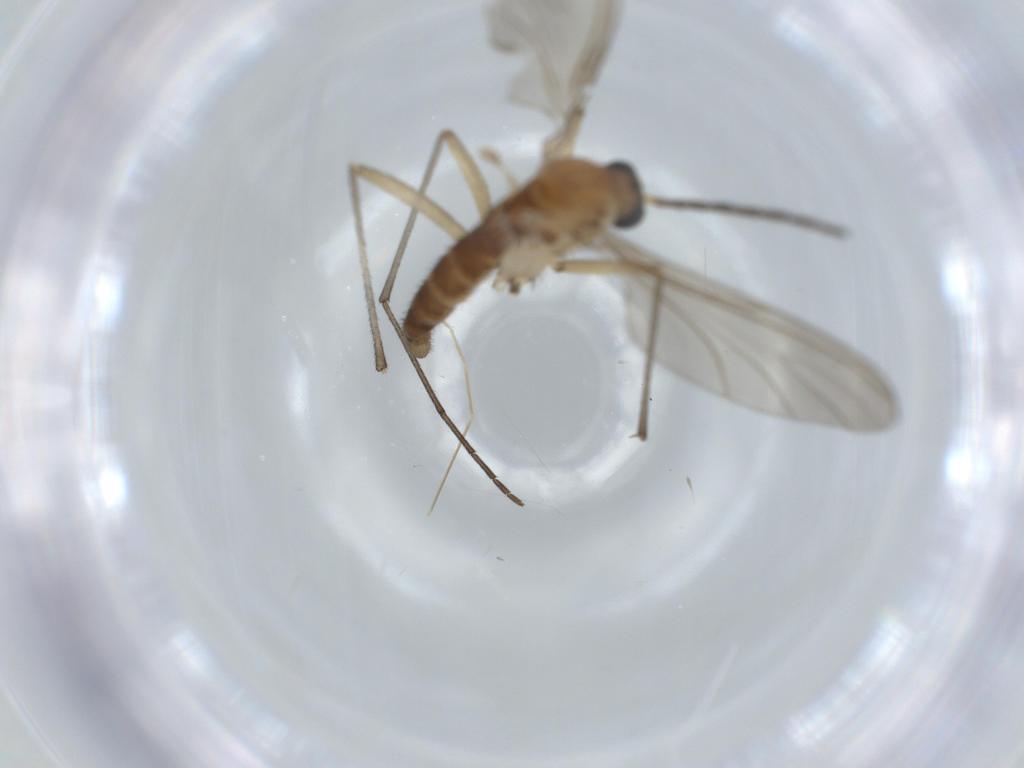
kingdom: Animalia
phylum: Arthropoda
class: Insecta
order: Diptera
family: Sciaridae
